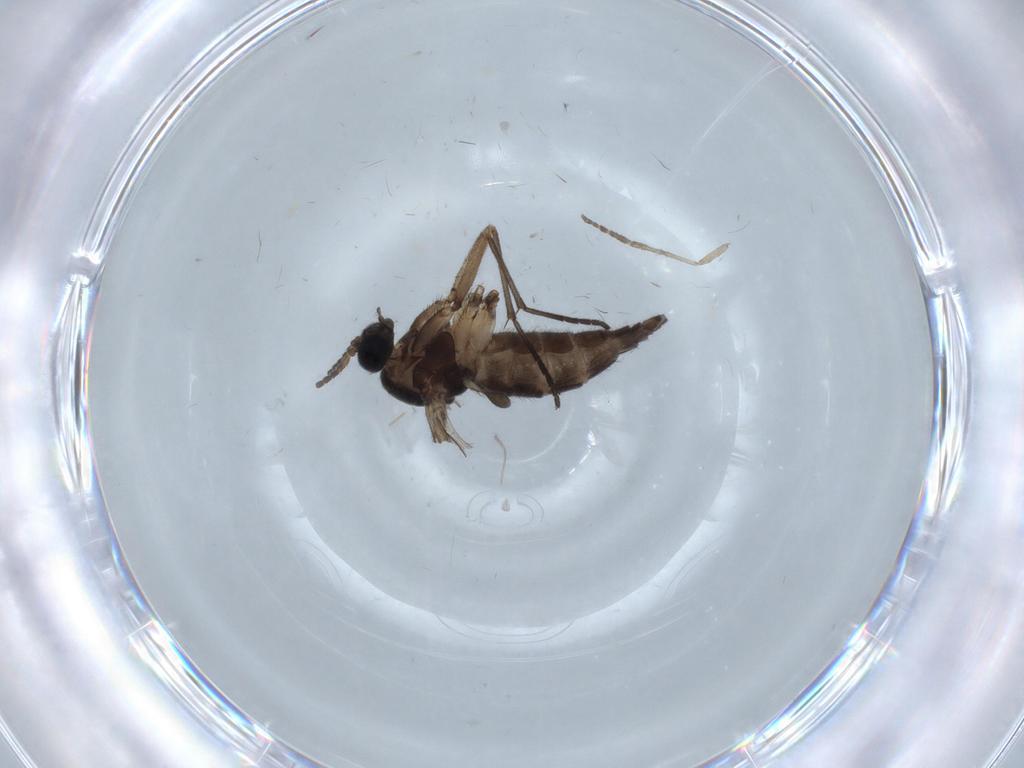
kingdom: Animalia
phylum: Arthropoda
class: Insecta
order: Diptera
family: Sciaridae
